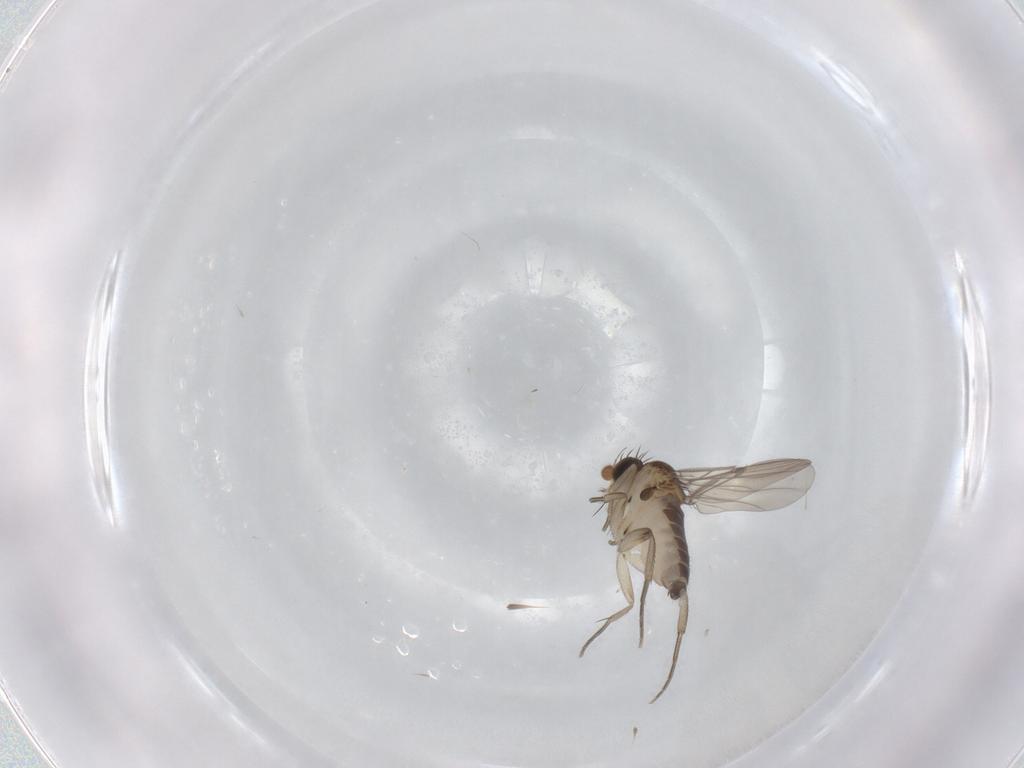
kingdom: Animalia
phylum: Arthropoda
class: Insecta
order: Diptera
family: Phoridae
